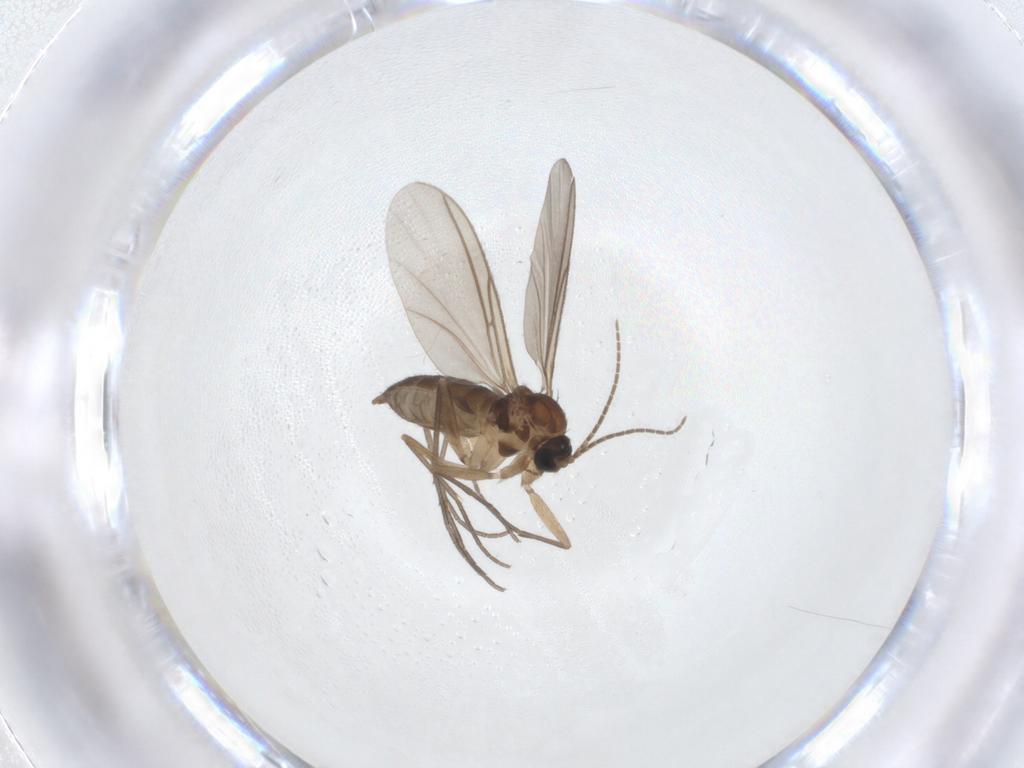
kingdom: Animalia
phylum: Arthropoda
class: Insecta
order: Diptera
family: Sciaridae
